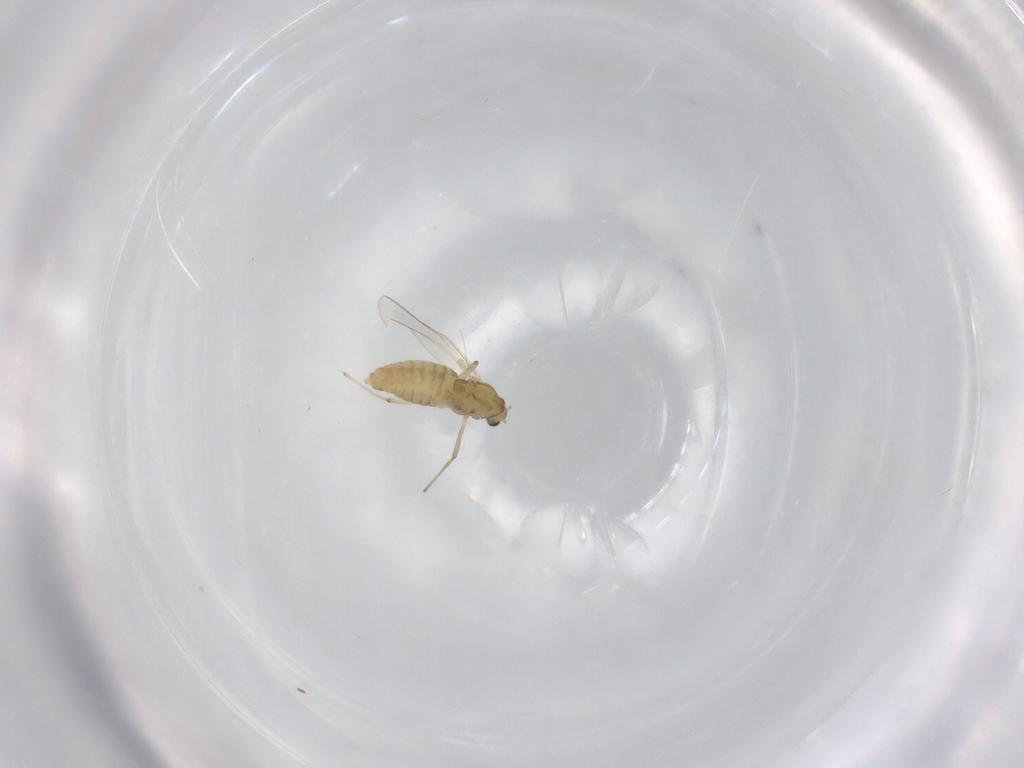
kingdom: Animalia
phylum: Arthropoda
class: Insecta
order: Diptera
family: Chironomidae
